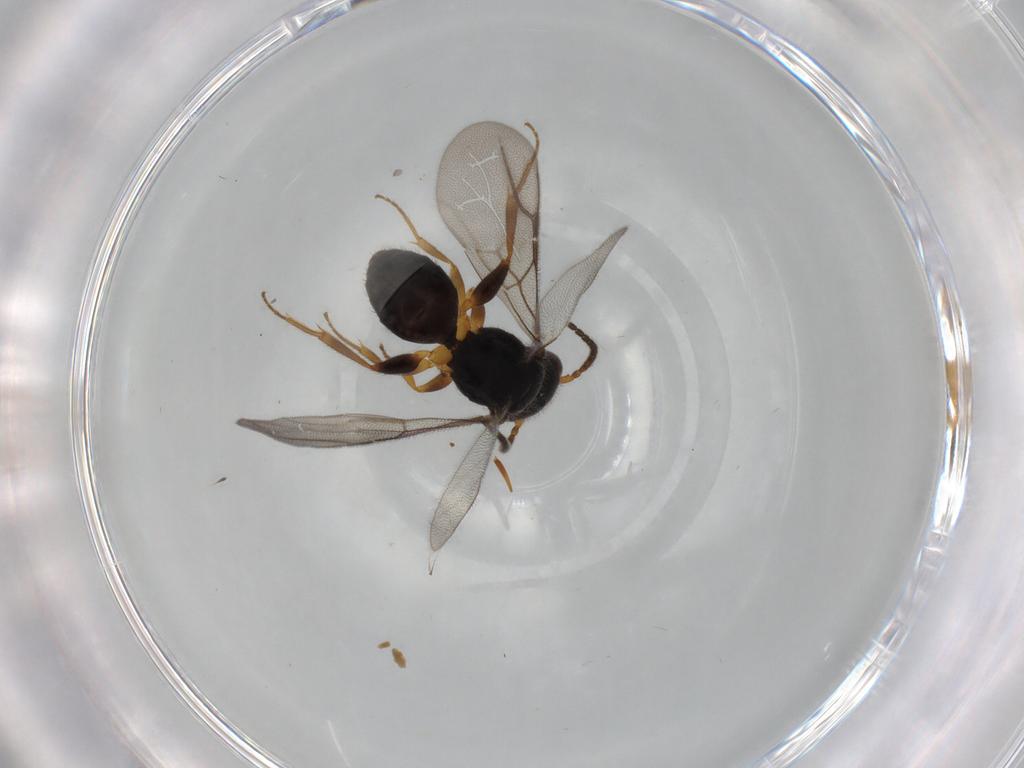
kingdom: Animalia
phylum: Arthropoda
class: Insecta
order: Hymenoptera
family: Bethylidae
